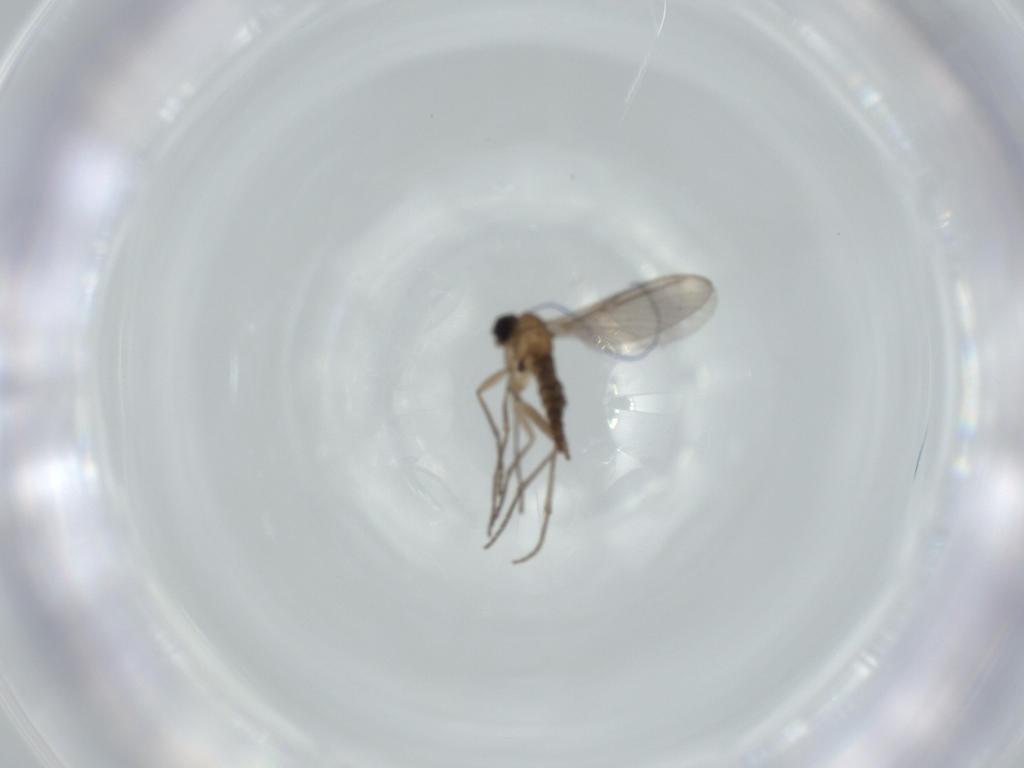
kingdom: Animalia
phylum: Arthropoda
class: Insecta
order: Diptera
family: Sciaridae
